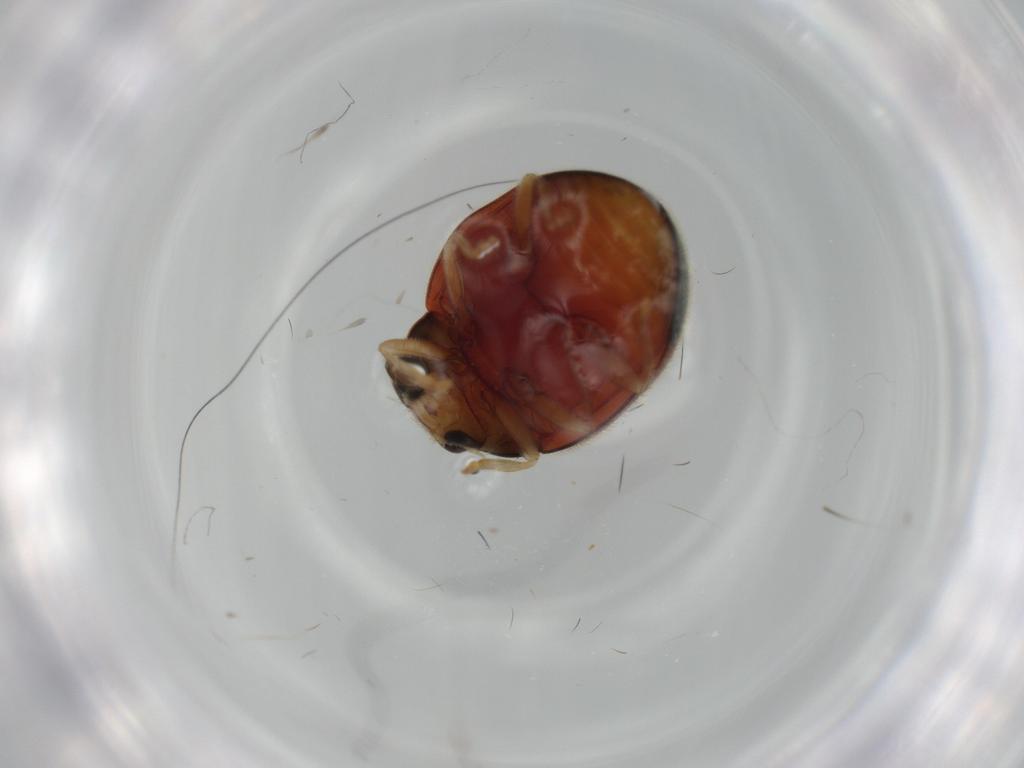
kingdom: Animalia
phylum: Arthropoda
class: Insecta
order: Coleoptera
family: Coccinellidae
